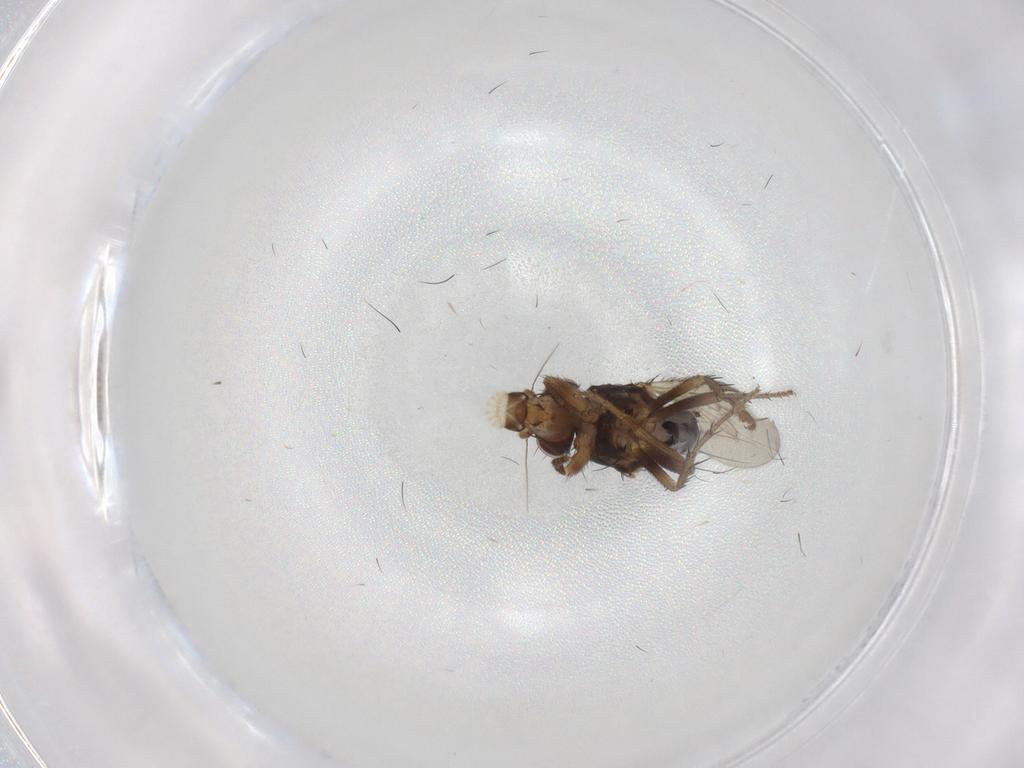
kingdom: Animalia
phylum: Arthropoda
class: Insecta
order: Diptera
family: Sphaeroceridae
